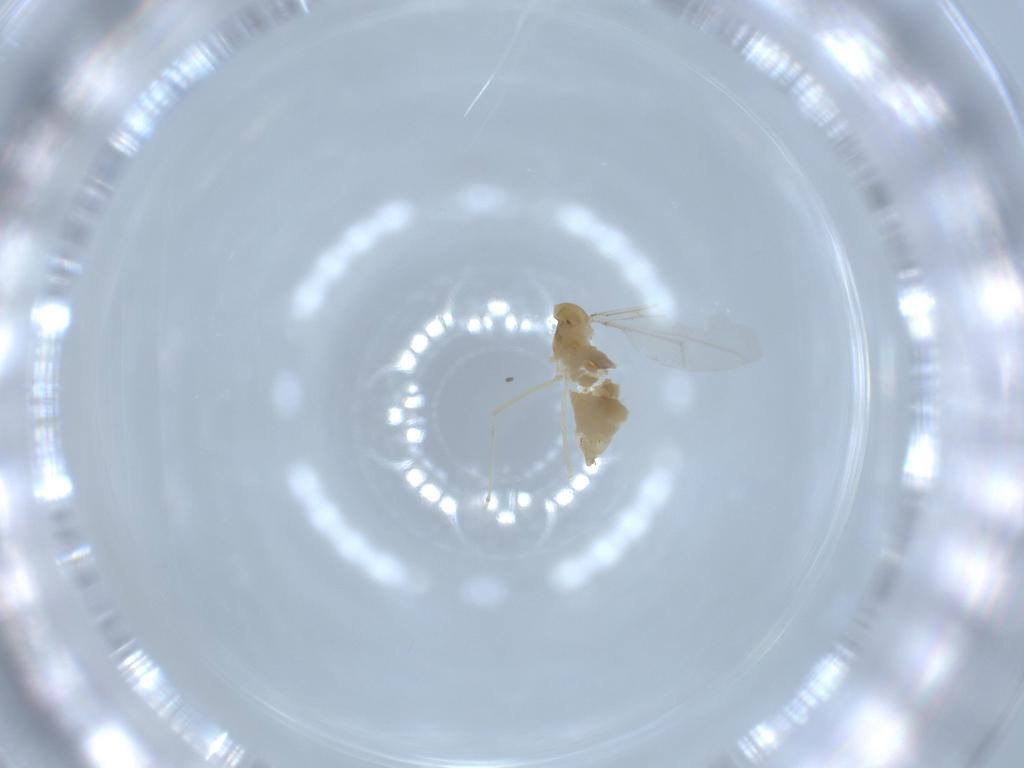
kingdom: Animalia
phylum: Arthropoda
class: Insecta
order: Diptera
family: Cecidomyiidae
